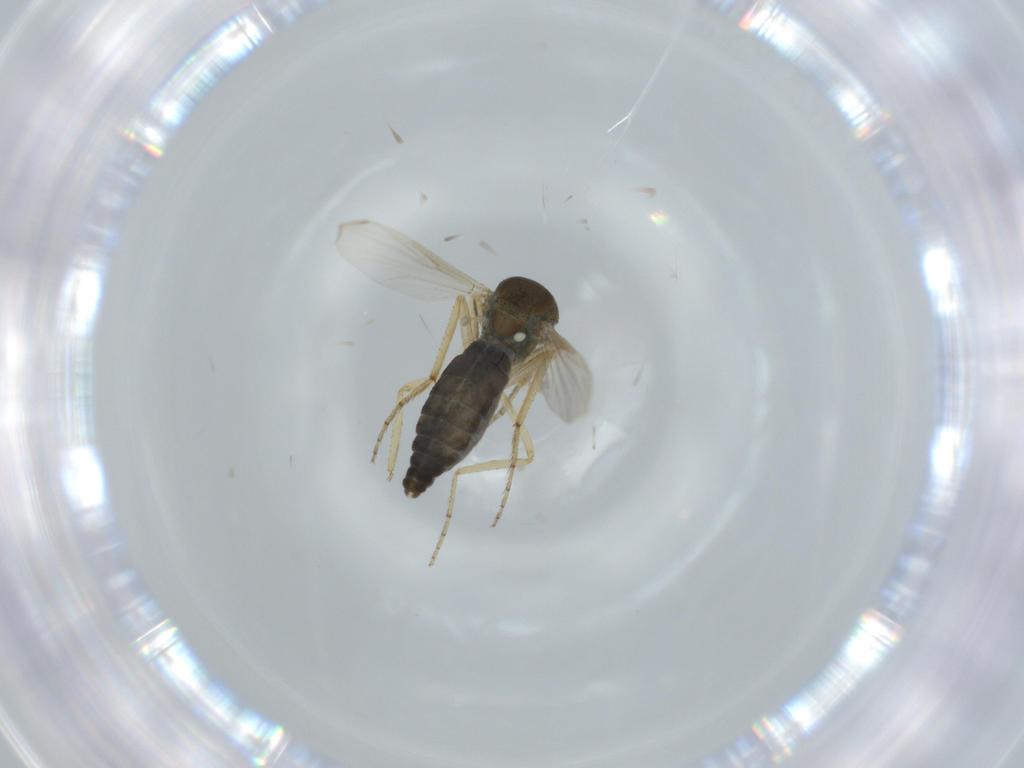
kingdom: Animalia
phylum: Arthropoda
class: Insecta
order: Diptera
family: Ceratopogonidae
